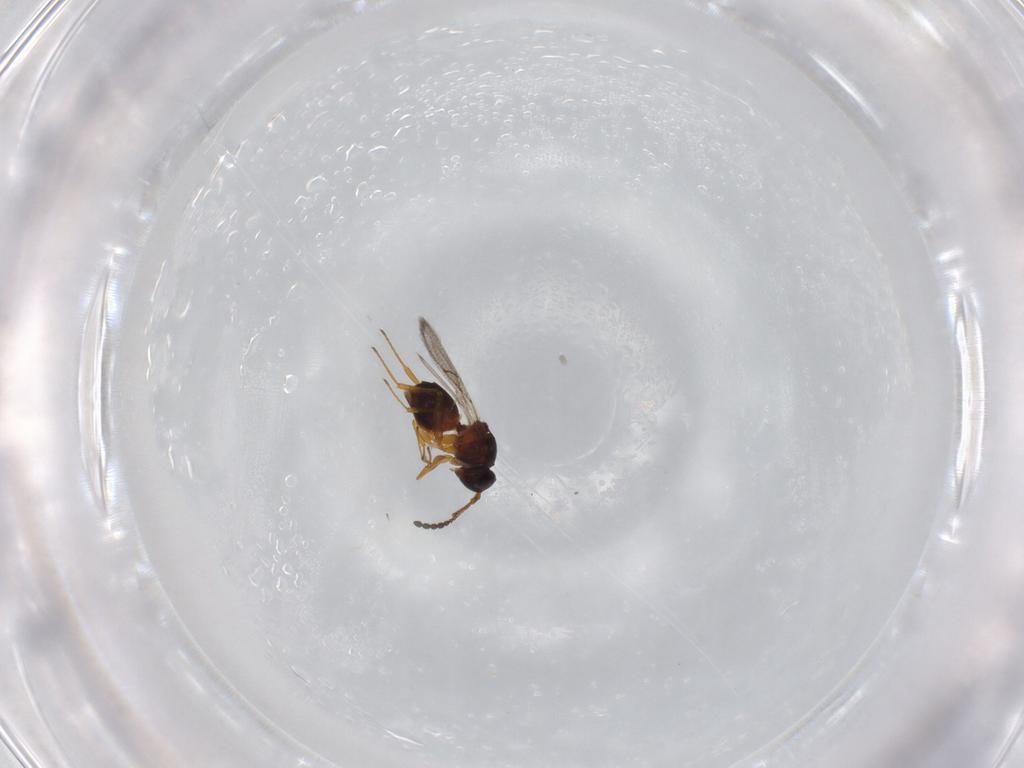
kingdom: Animalia
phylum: Arthropoda
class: Insecta
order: Hymenoptera
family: Figitidae
